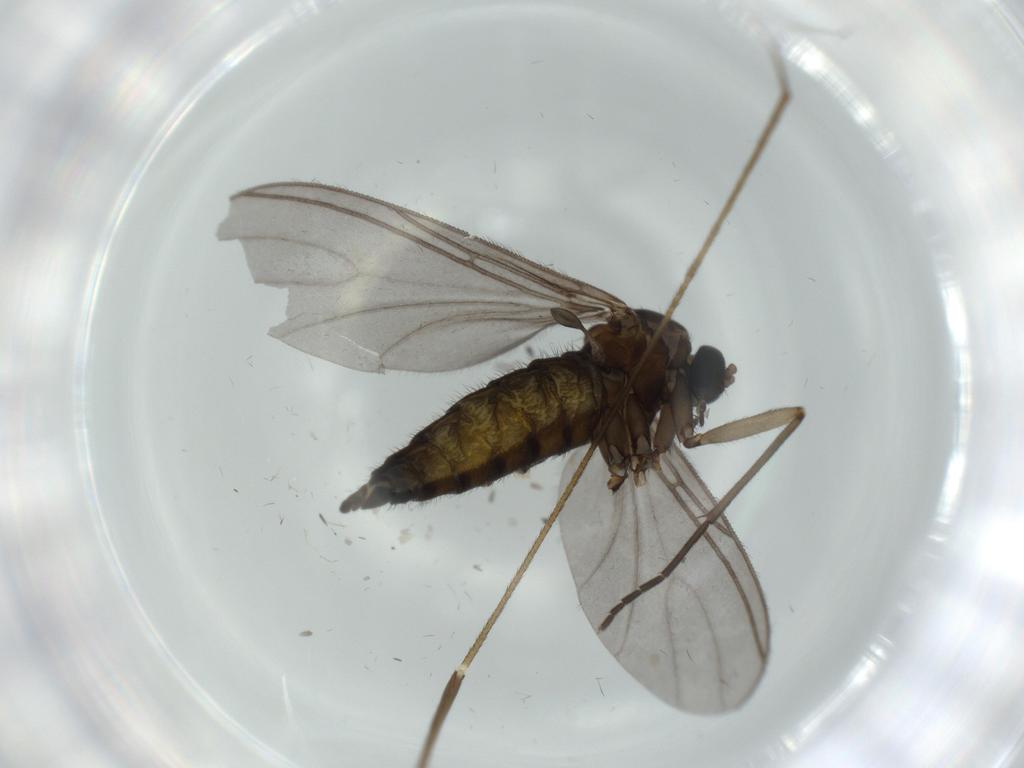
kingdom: Animalia
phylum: Arthropoda
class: Insecta
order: Diptera
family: Sciaridae
